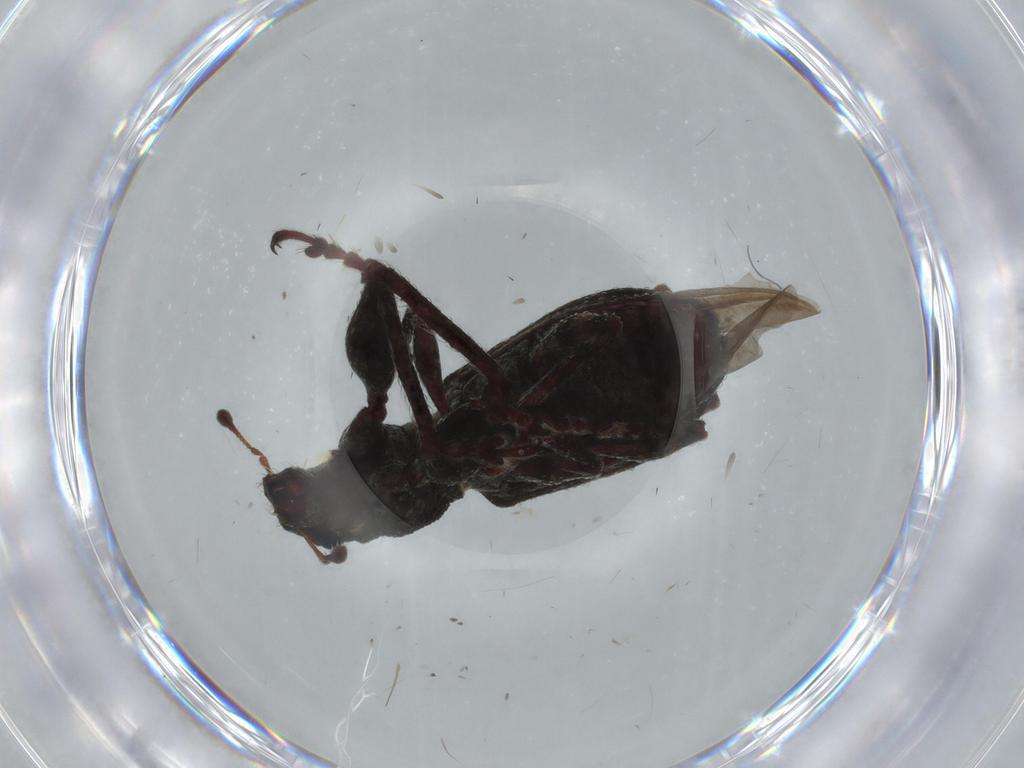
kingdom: Animalia
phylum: Arthropoda
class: Insecta
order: Coleoptera
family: Curculionidae
